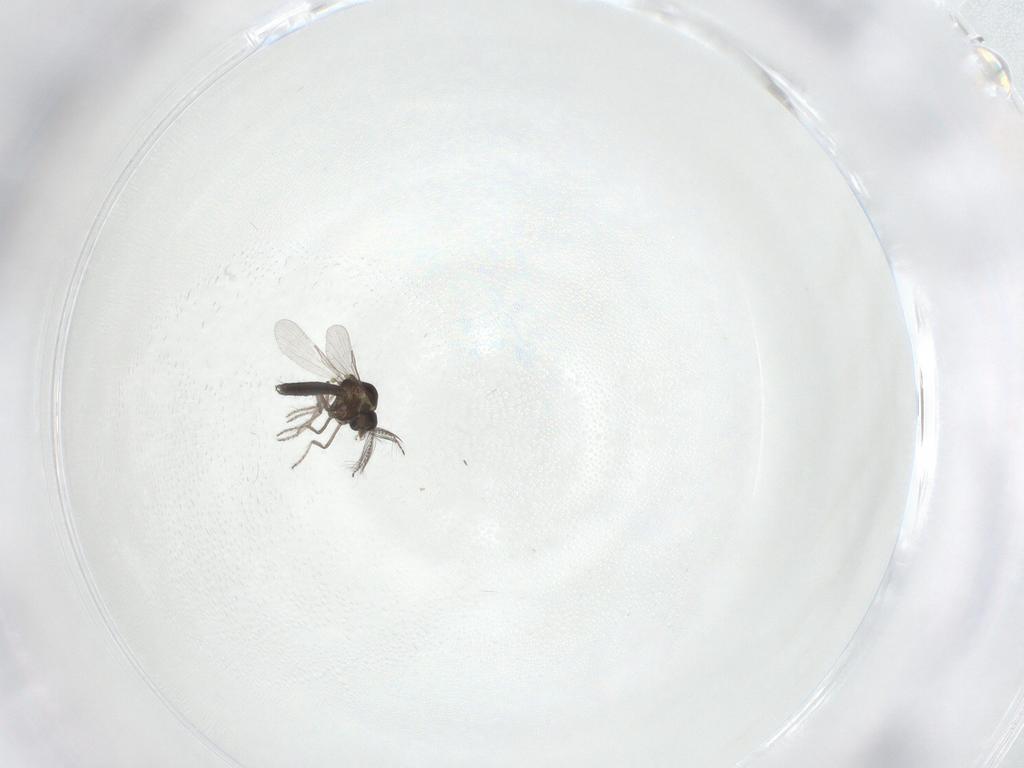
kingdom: Animalia
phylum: Arthropoda
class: Insecta
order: Diptera
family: Ceratopogonidae
